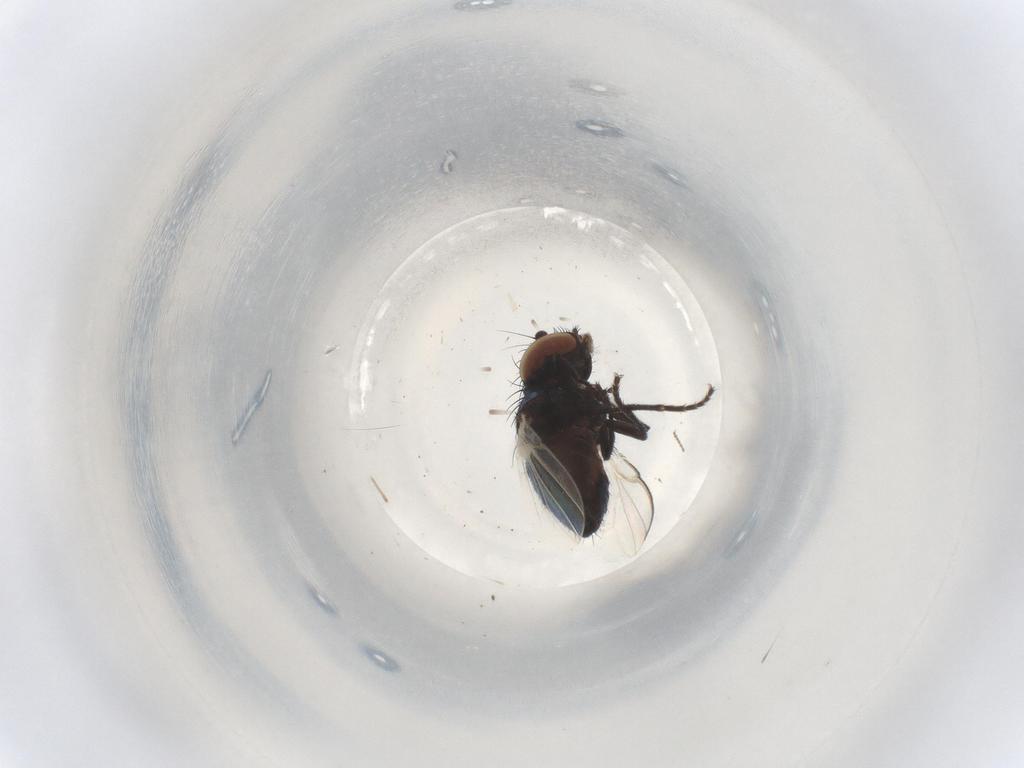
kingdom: Animalia
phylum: Arthropoda
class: Insecta
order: Diptera
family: Milichiidae
